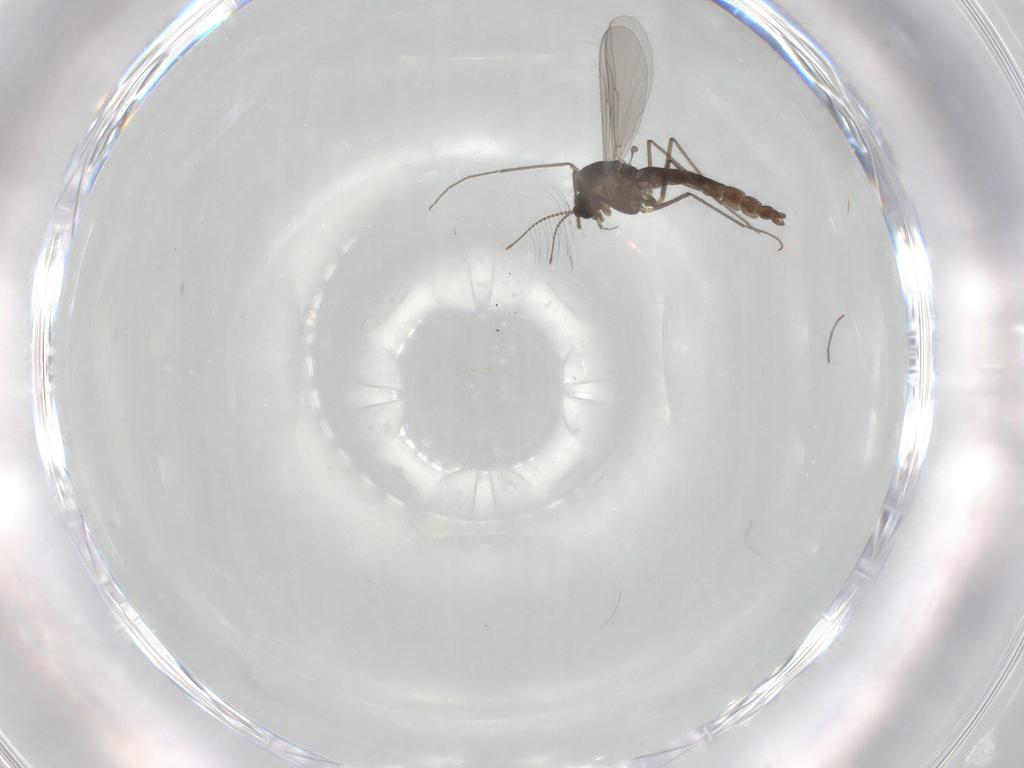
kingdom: Animalia
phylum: Arthropoda
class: Insecta
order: Diptera
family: Chironomidae
